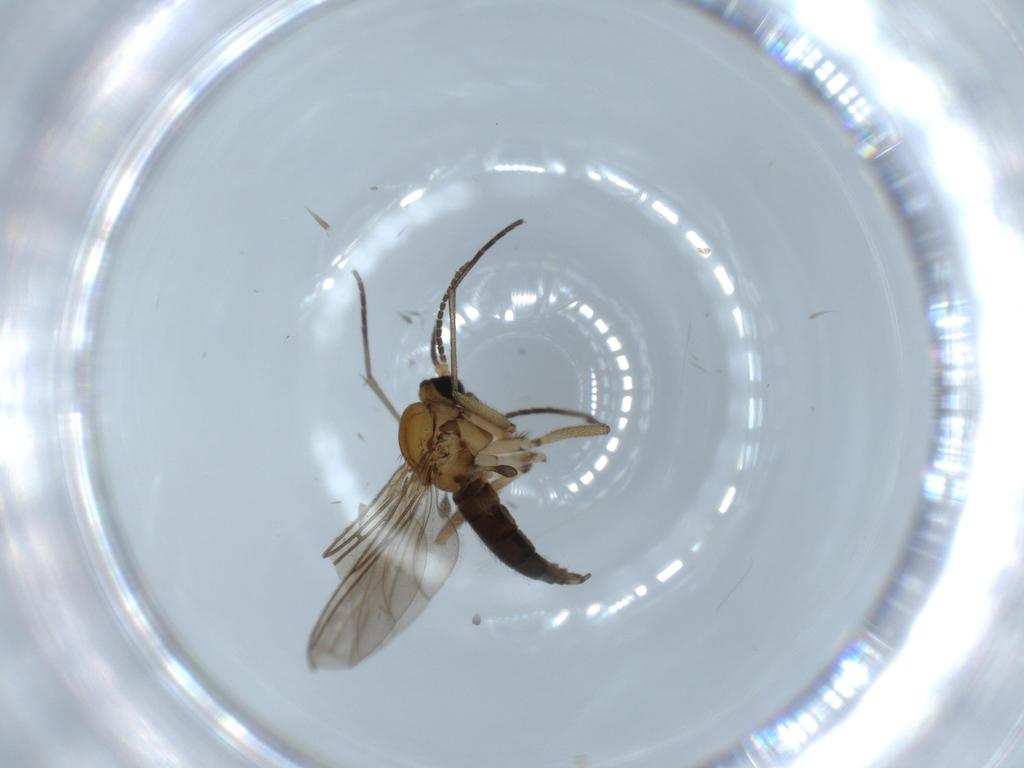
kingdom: Animalia
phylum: Arthropoda
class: Insecta
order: Diptera
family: Sciaridae
